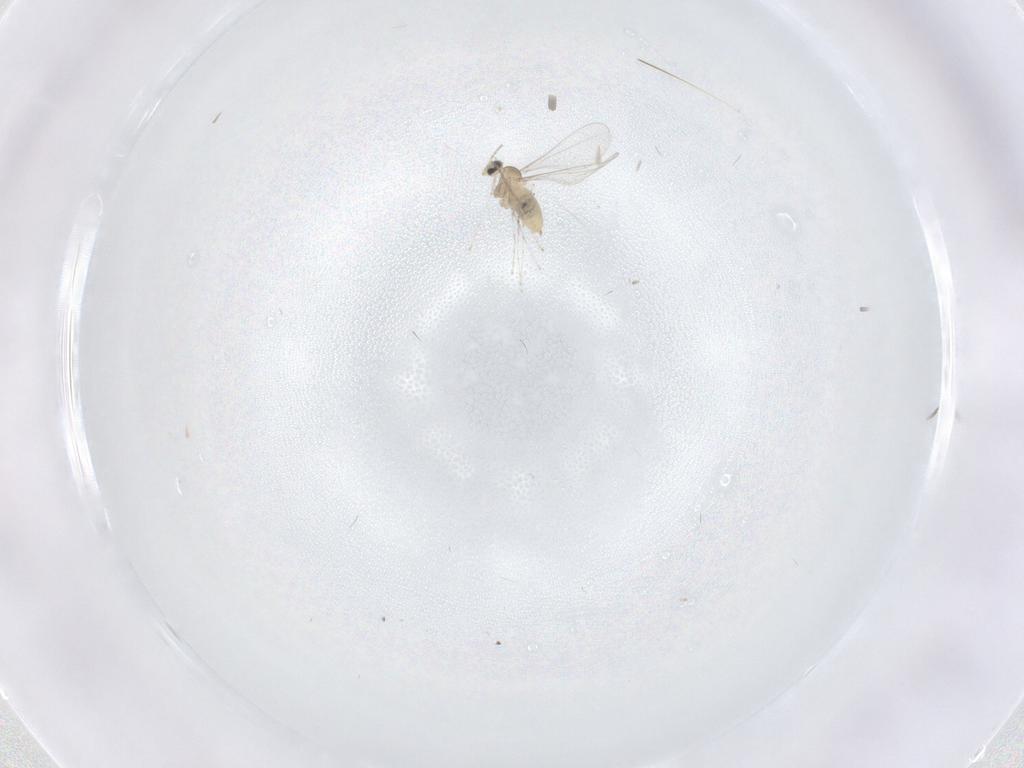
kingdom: Animalia
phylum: Arthropoda
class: Insecta
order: Diptera
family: Cecidomyiidae
